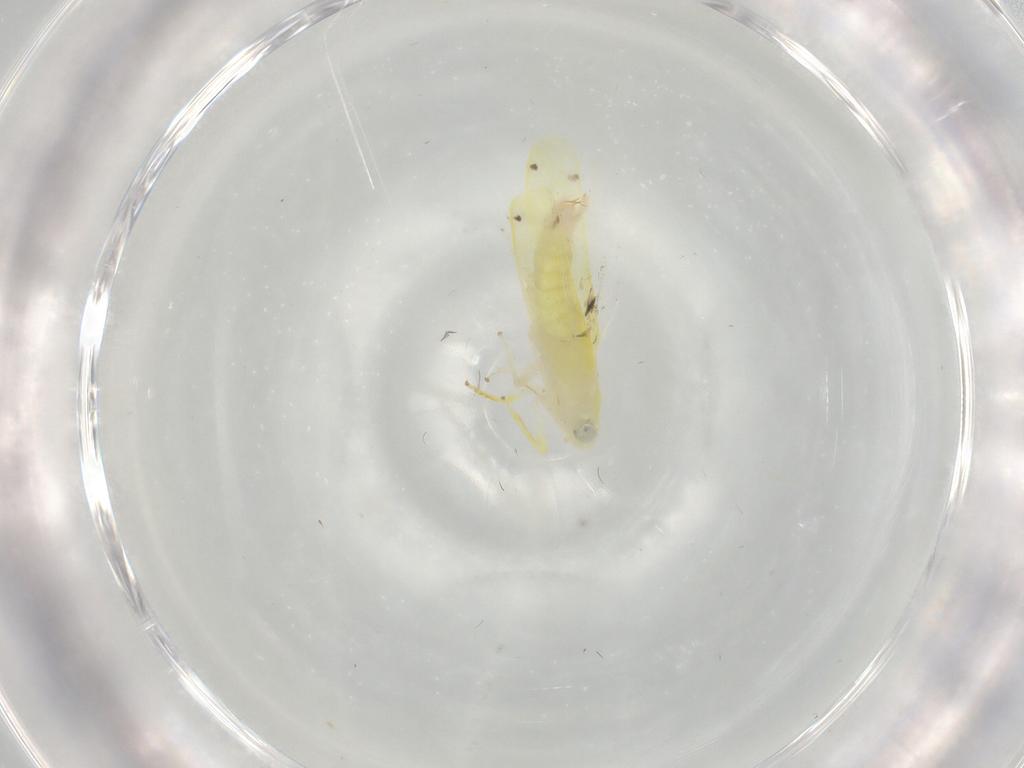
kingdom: Animalia
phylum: Arthropoda
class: Insecta
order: Hemiptera
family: Cicadellidae
